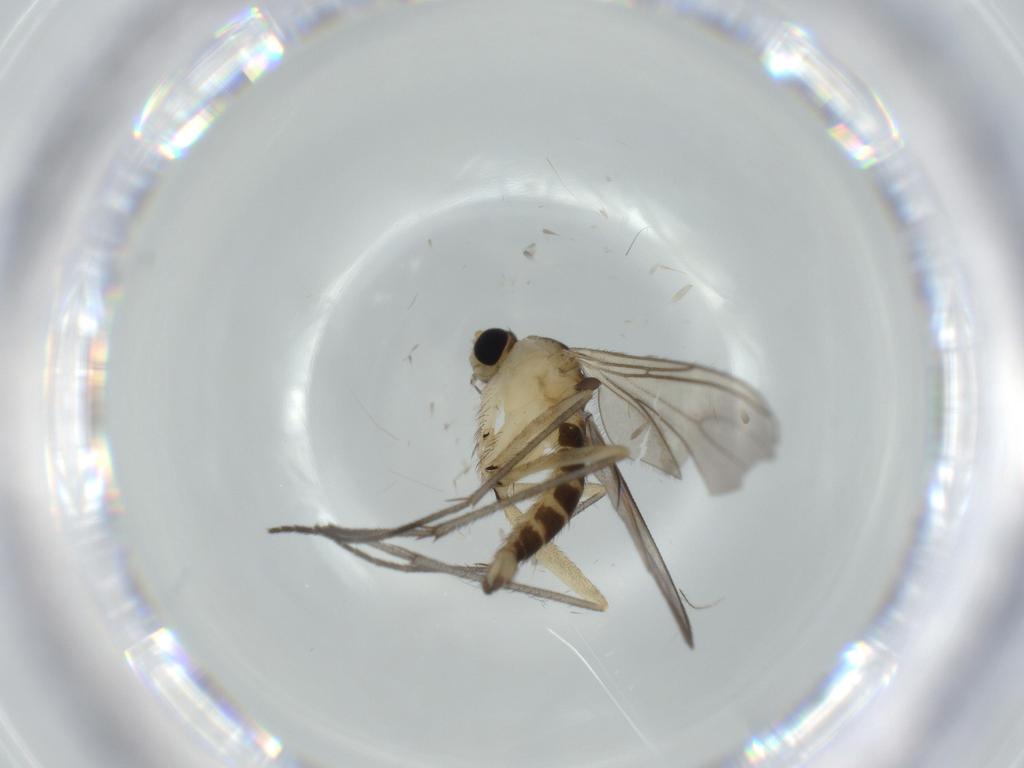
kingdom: Animalia
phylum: Arthropoda
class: Insecta
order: Diptera
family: Sciaridae
